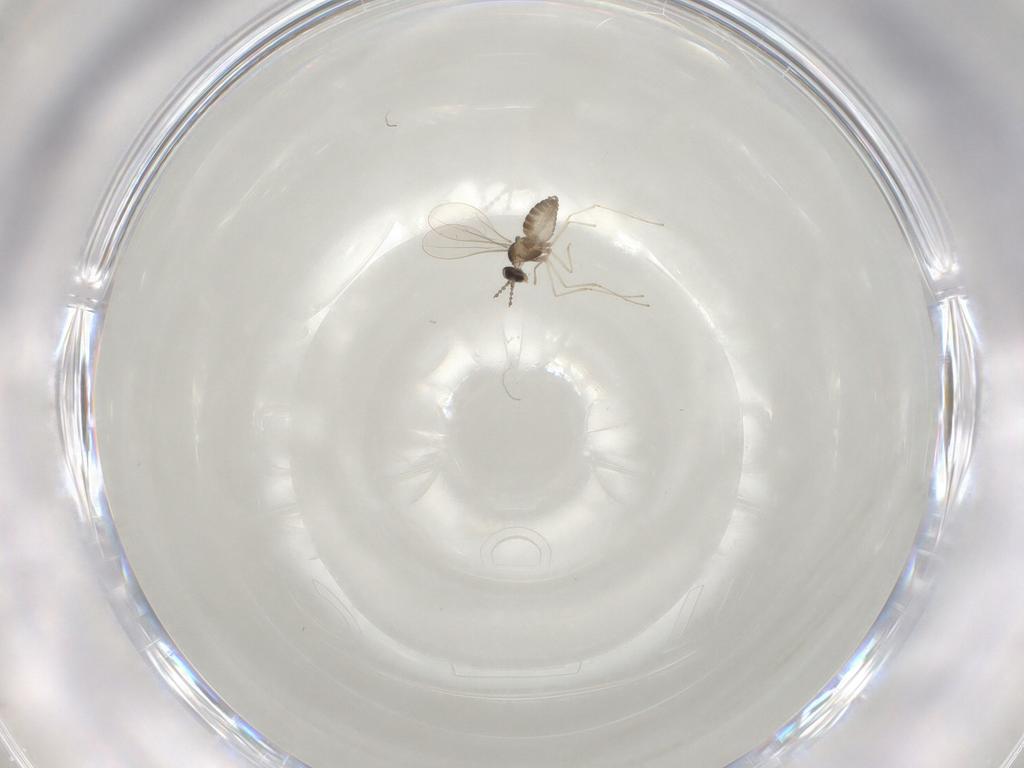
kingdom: Animalia
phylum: Arthropoda
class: Insecta
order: Diptera
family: Cecidomyiidae
